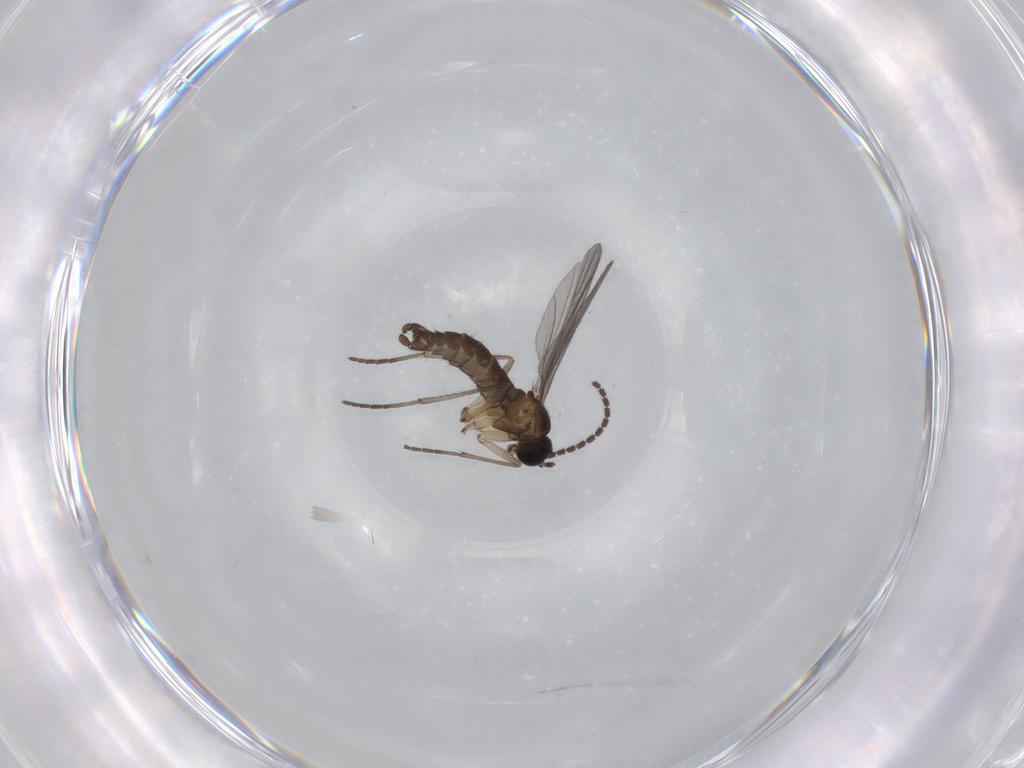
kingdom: Animalia
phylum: Arthropoda
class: Insecta
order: Diptera
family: Sciaridae
